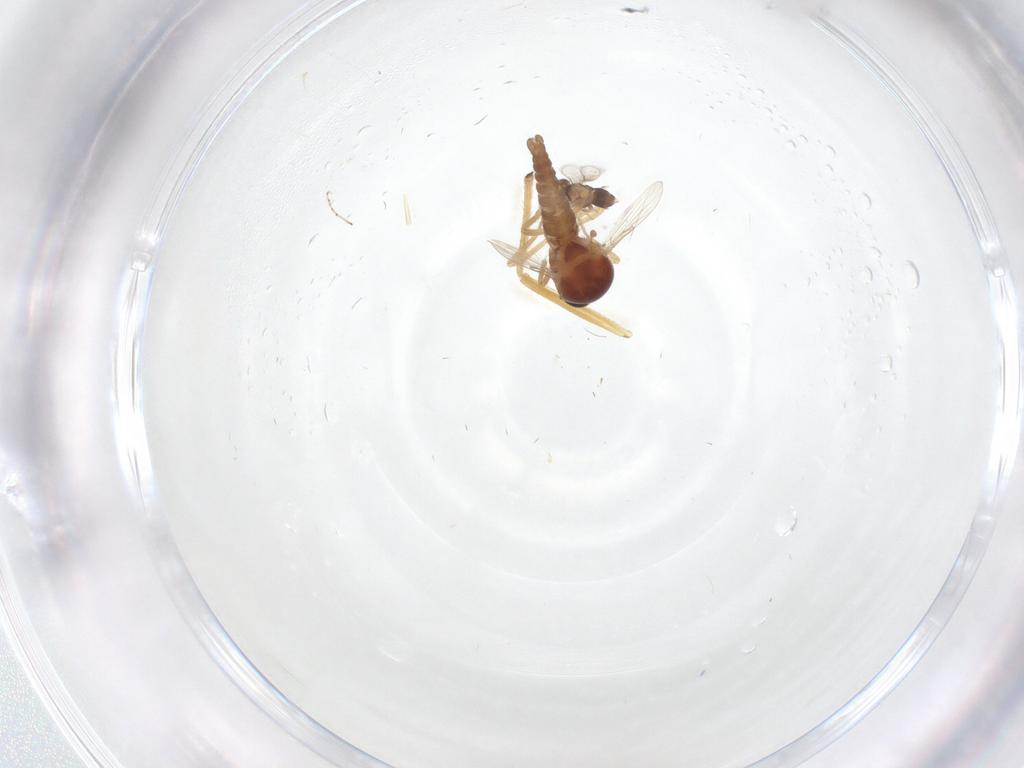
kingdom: Animalia
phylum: Arthropoda
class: Insecta
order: Diptera
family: Ceratopogonidae
